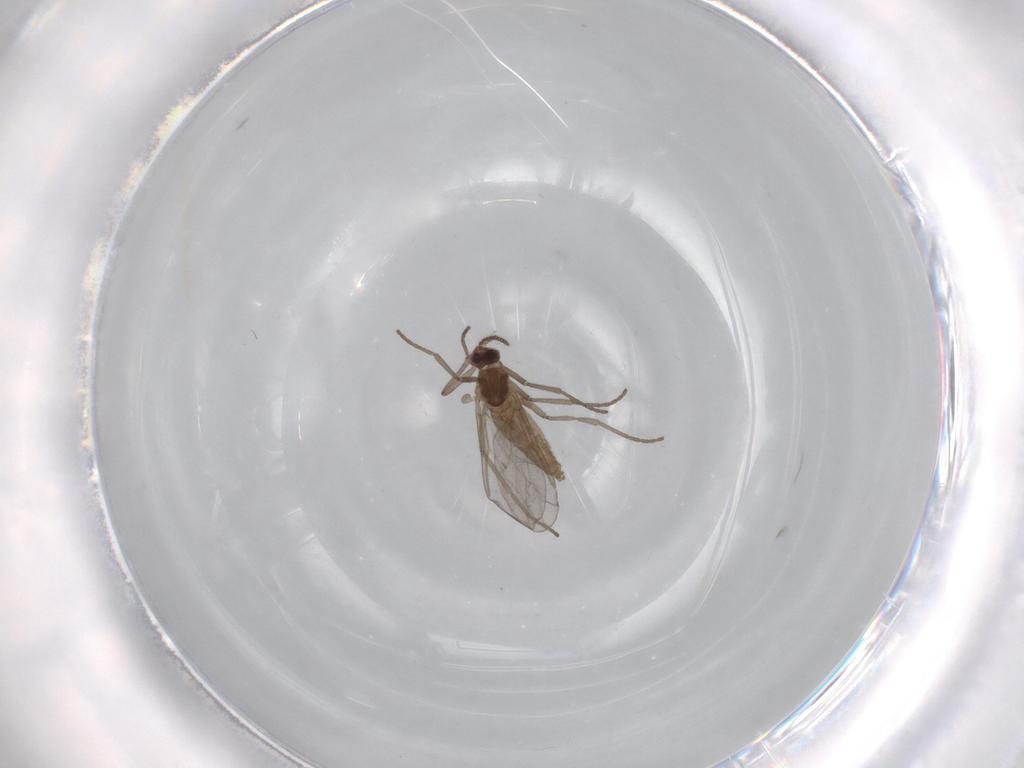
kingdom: Animalia
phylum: Arthropoda
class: Insecta
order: Diptera
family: Cecidomyiidae
